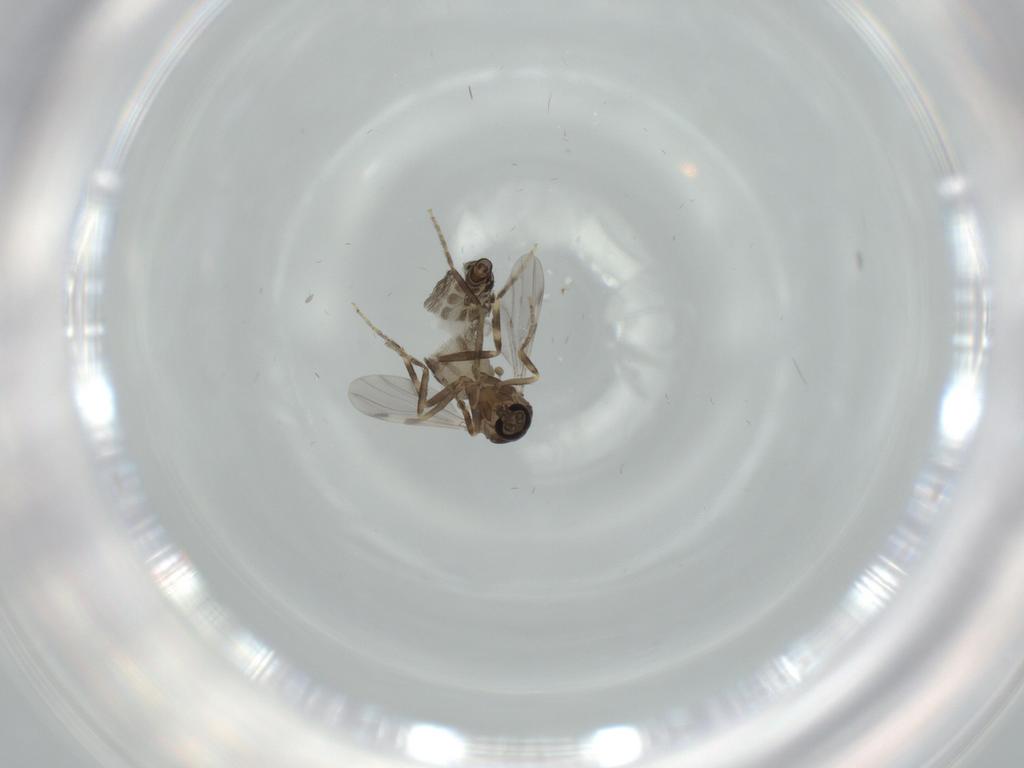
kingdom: Animalia
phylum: Arthropoda
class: Insecta
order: Diptera
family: Ceratopogonidae
